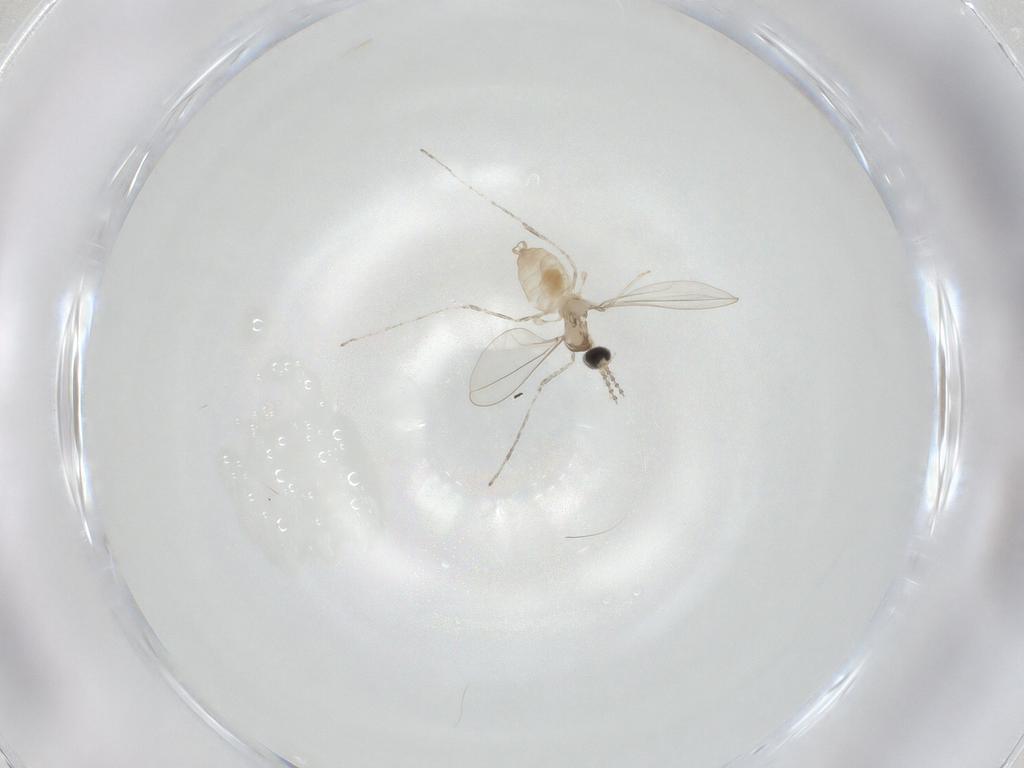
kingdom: Animalia
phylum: Arthropoda
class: Insecta
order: Diptera
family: Cecidomyiidae
